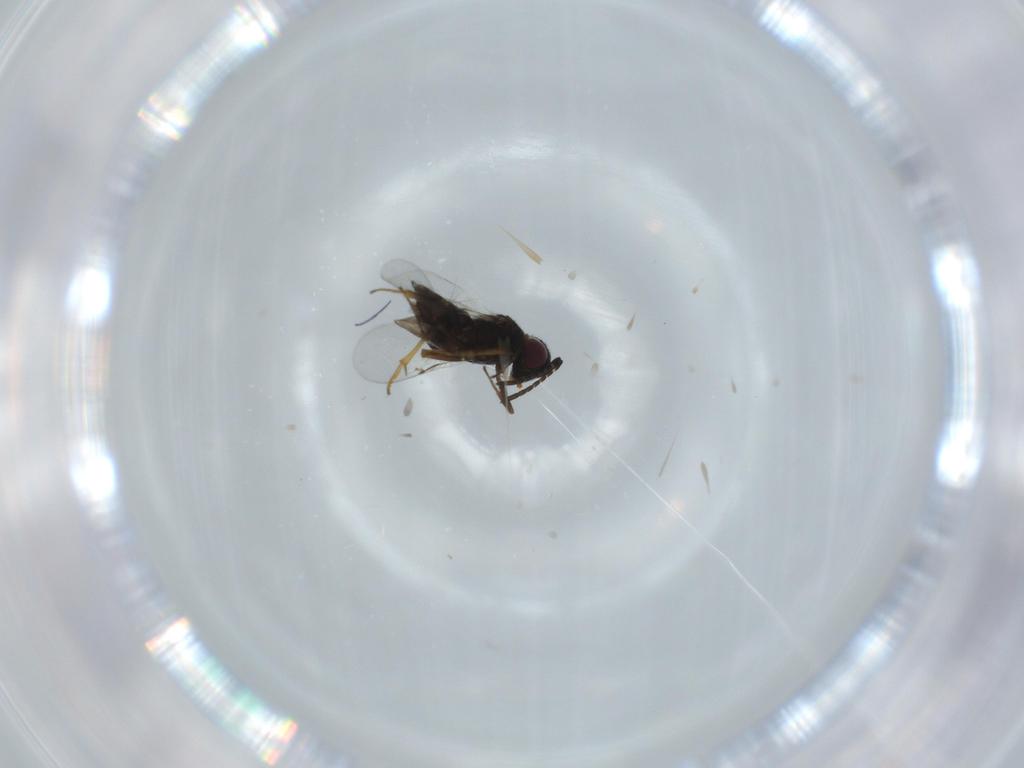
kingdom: Animalia
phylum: Arthropoda
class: Insecta
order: Hymenoptera
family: Encyrtidae
